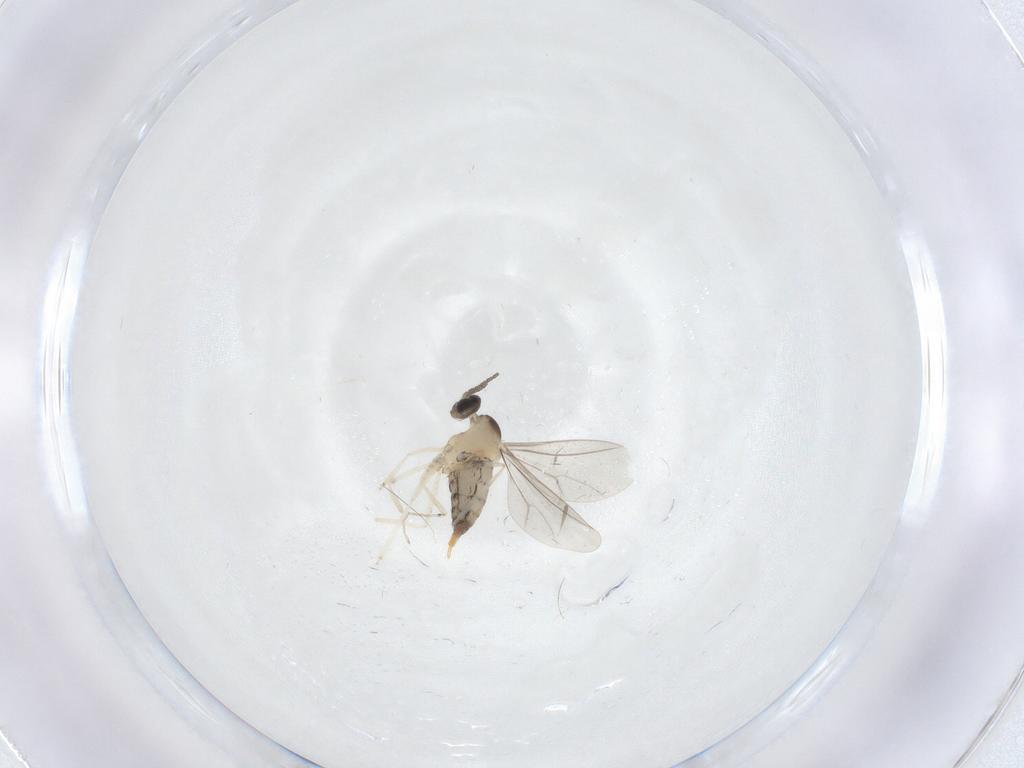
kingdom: Animalia
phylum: Arthropoda
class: Insecta
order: Diptera
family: Cecidomyiidae
